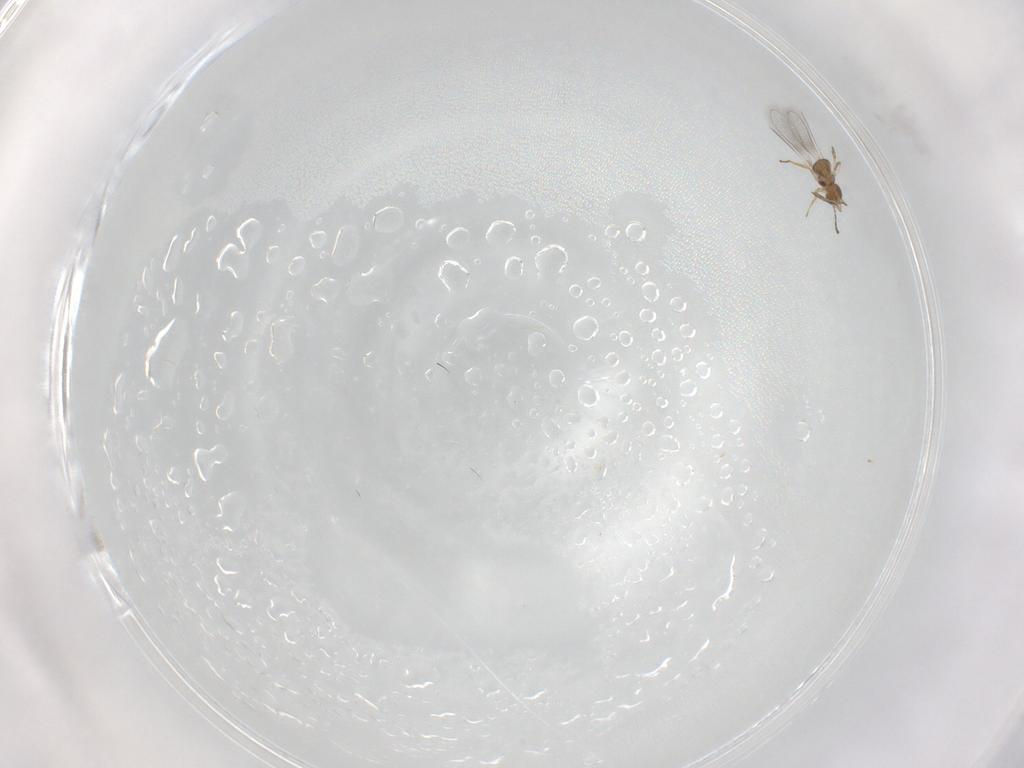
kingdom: Animalia
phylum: Arthropoda
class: Insecta
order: Hymenoptera
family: Mymaridae
